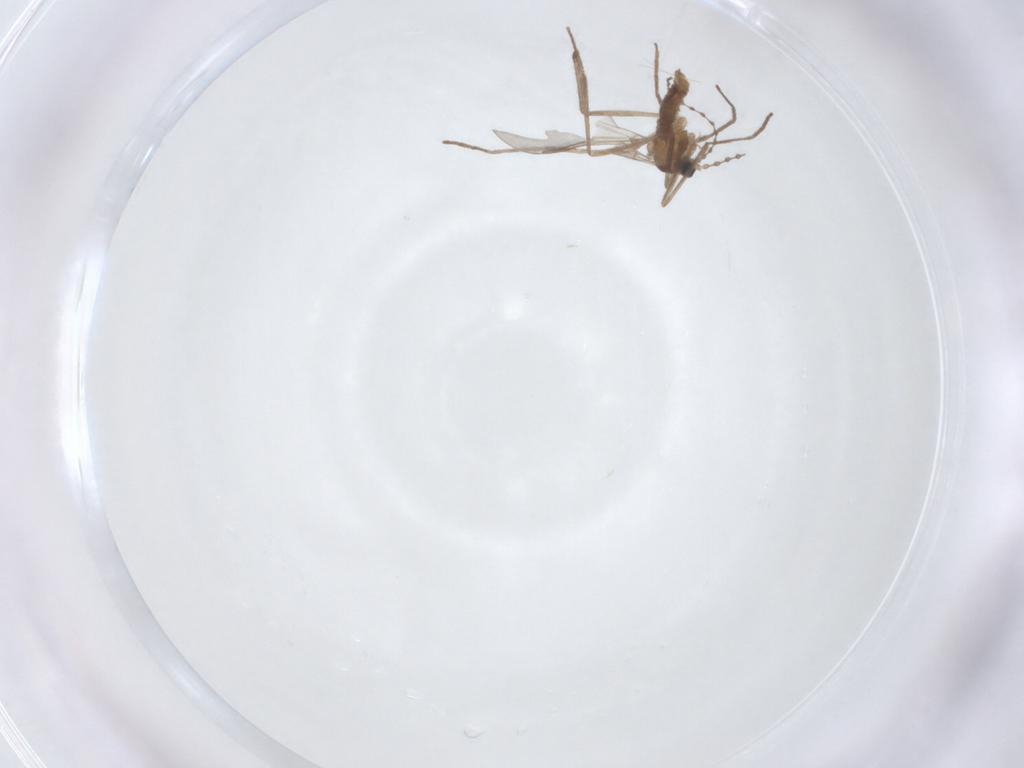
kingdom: Animalia
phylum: Arthropoda
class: Insecta
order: Diptera
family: Cecidomyiidae
